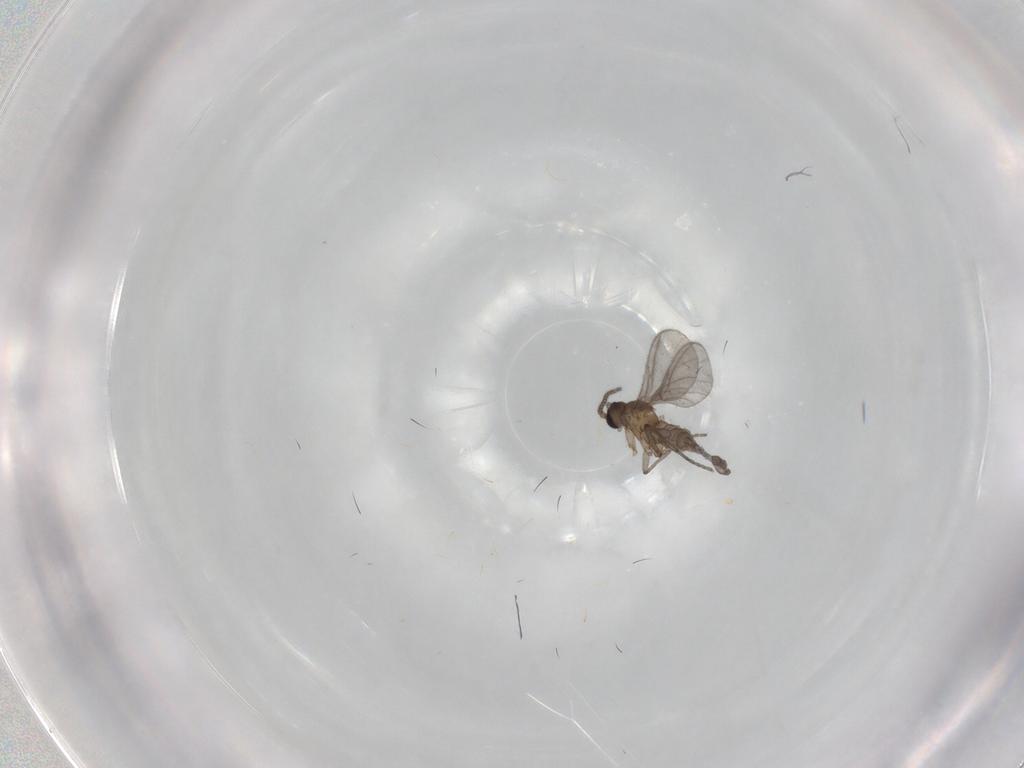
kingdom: Animalia
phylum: Arthropoda
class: Insecta
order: Diptera
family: Sciaridae
